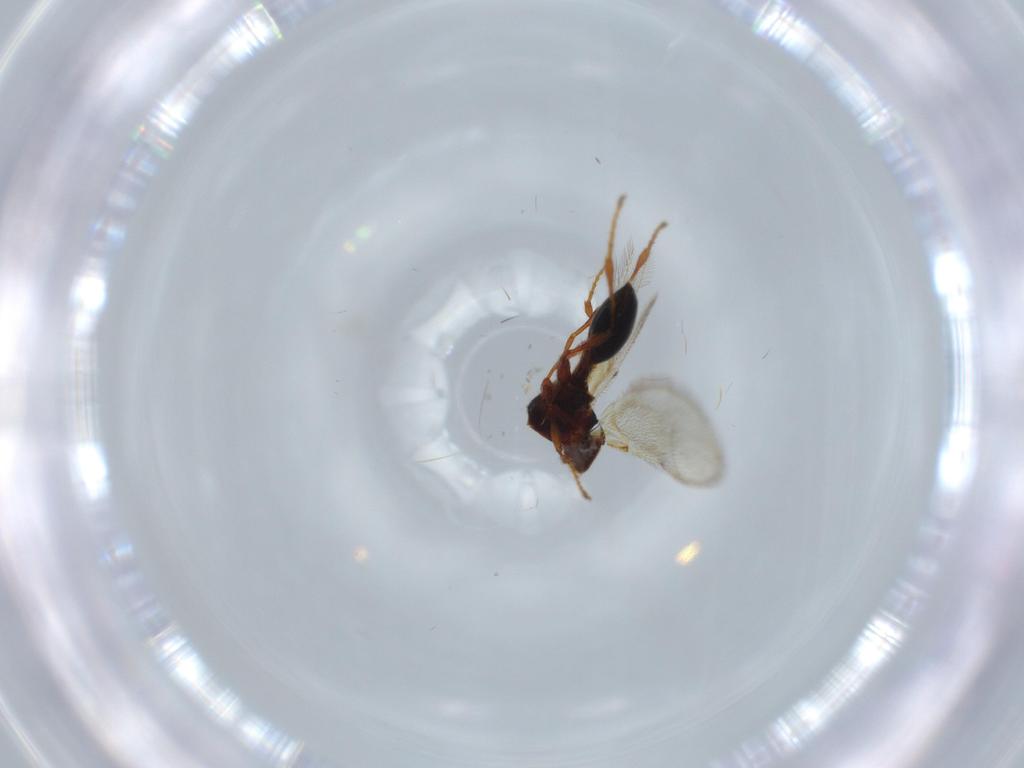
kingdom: Animalia
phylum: Arthropoda
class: Insecta
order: Hymenoptera
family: Diapriidae
